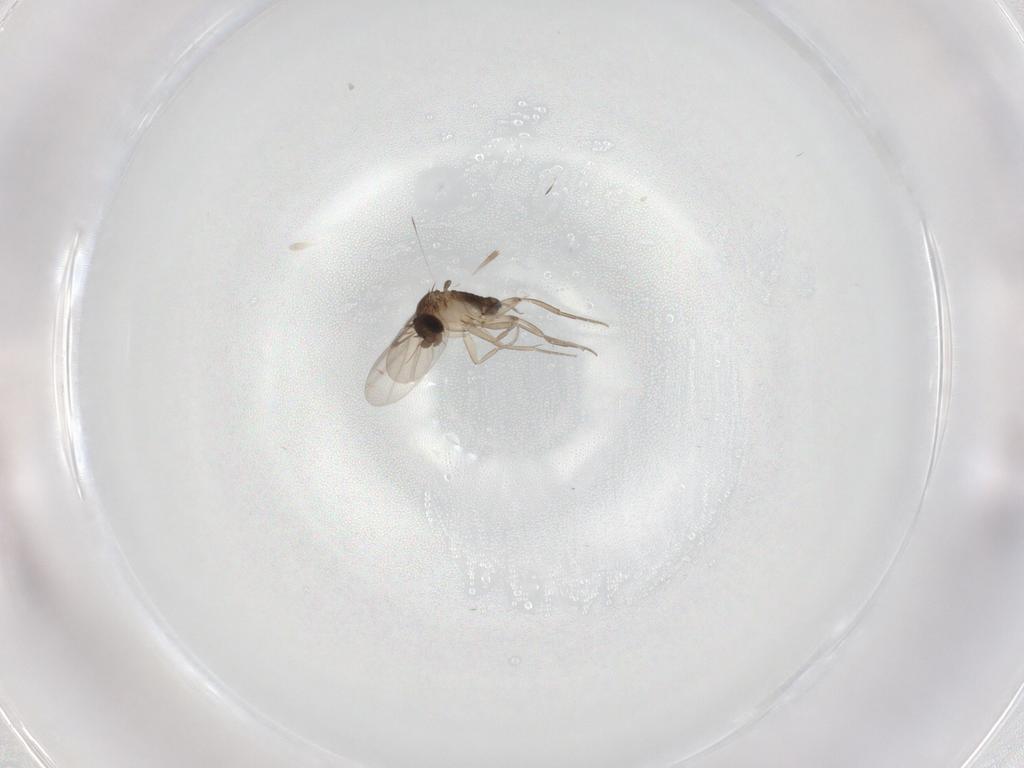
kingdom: Animalia
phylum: Arthropoda
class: Insecta
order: Diptera
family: Phoridae
